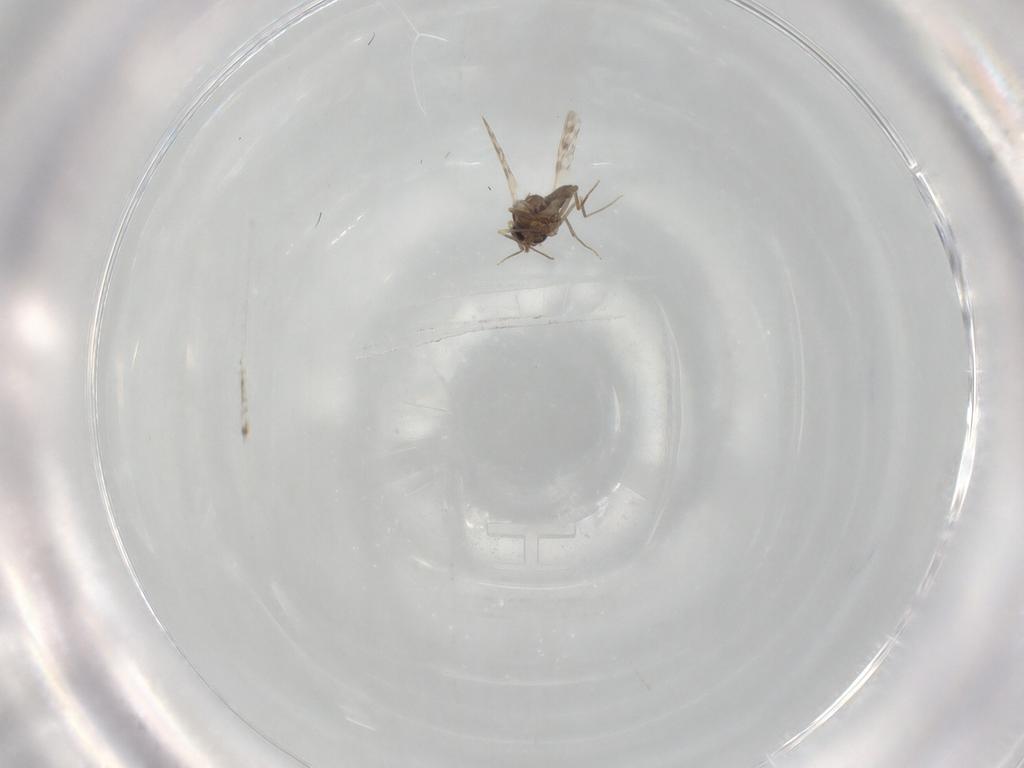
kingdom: Animalia
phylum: Arthropoda
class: Insecta
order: Diptera
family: Ceratopogonidae
